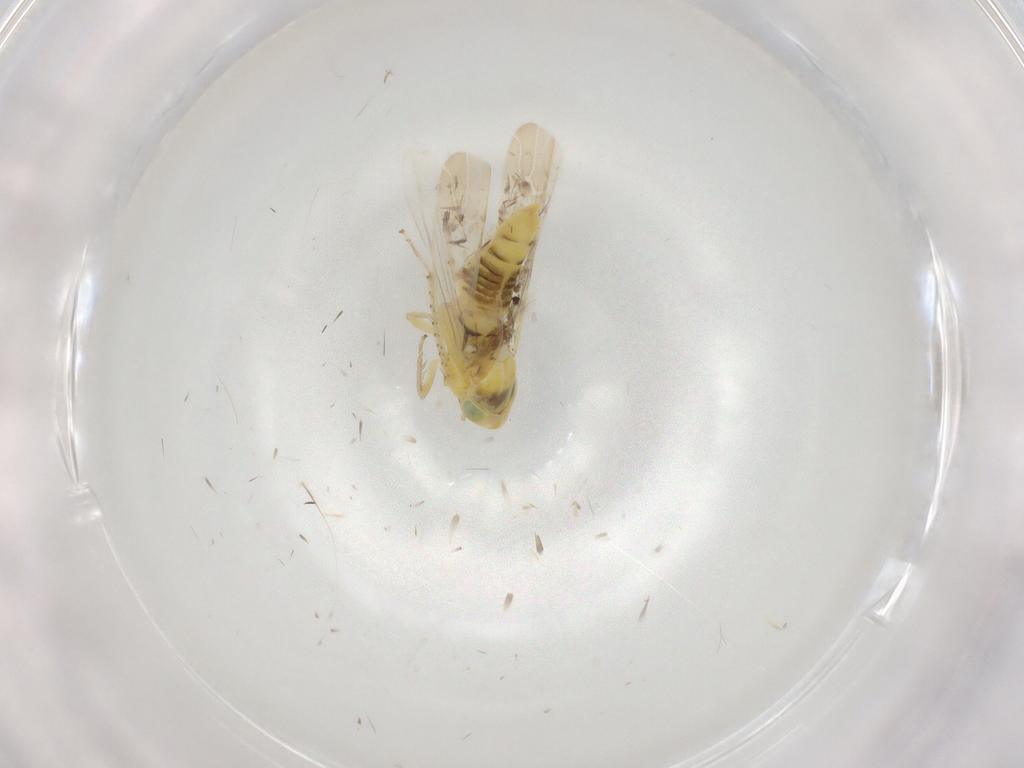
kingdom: Animalia
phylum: Arthropoda
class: Insecta
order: Hemiptera
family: Cicadellidae
